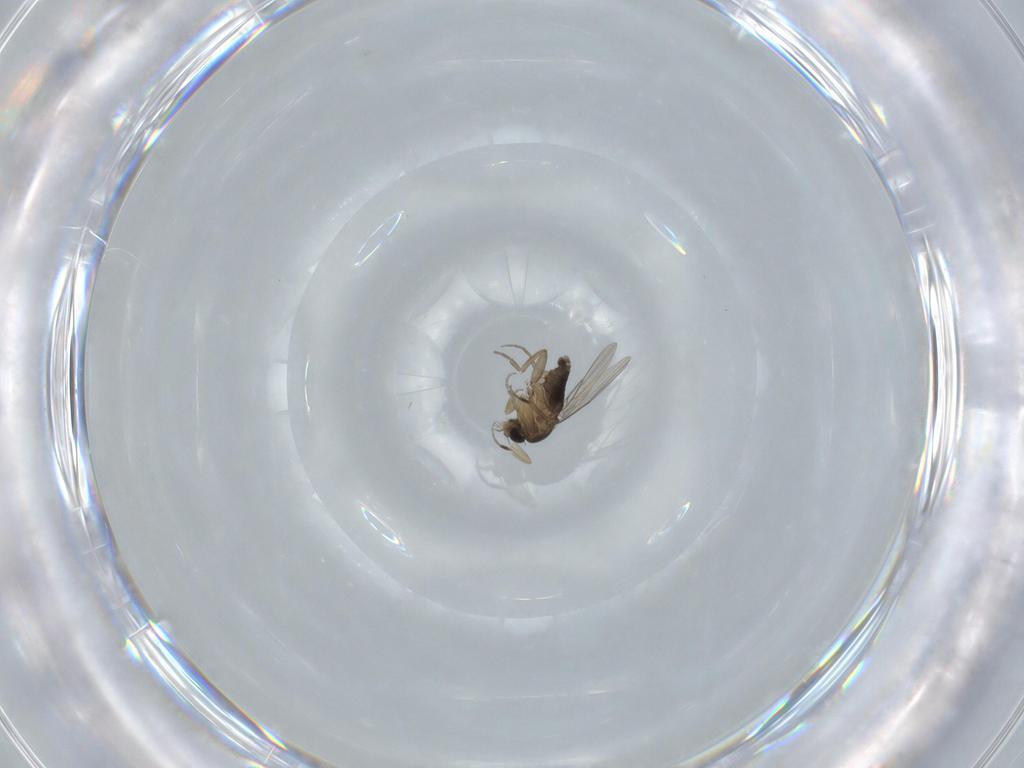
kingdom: Animalia
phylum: Arthropoda
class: Insecta
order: Diptera
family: Phoridae
